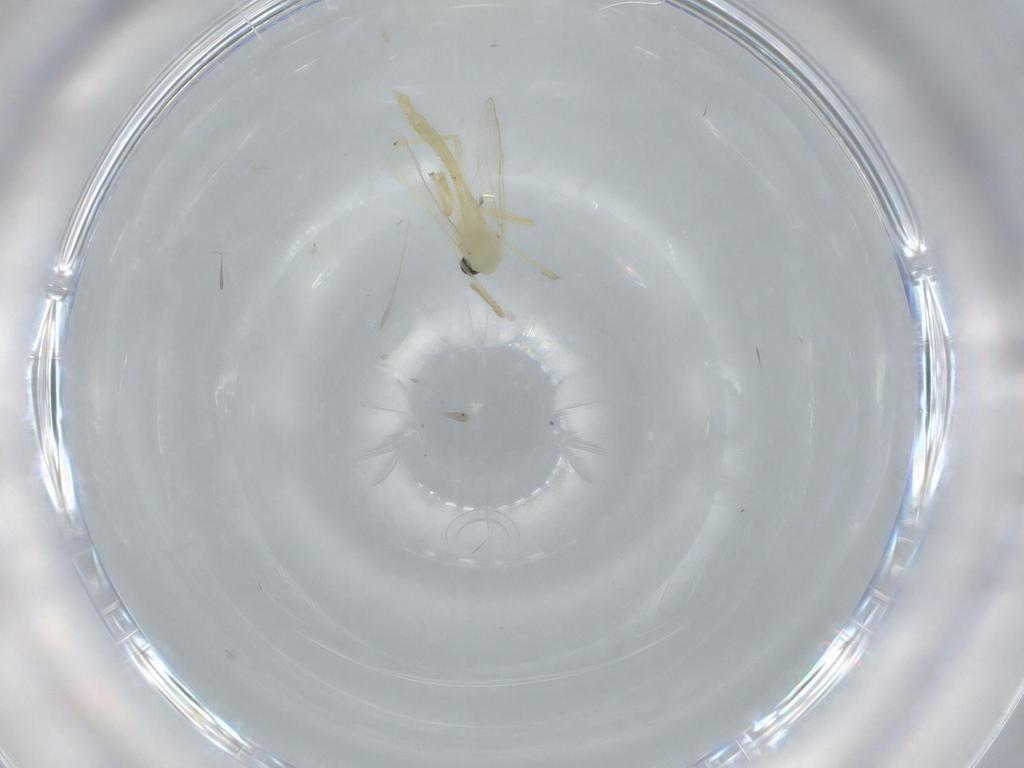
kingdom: Animalia
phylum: Arthropoda
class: Insecta
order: Diptera
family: Chironomidae
